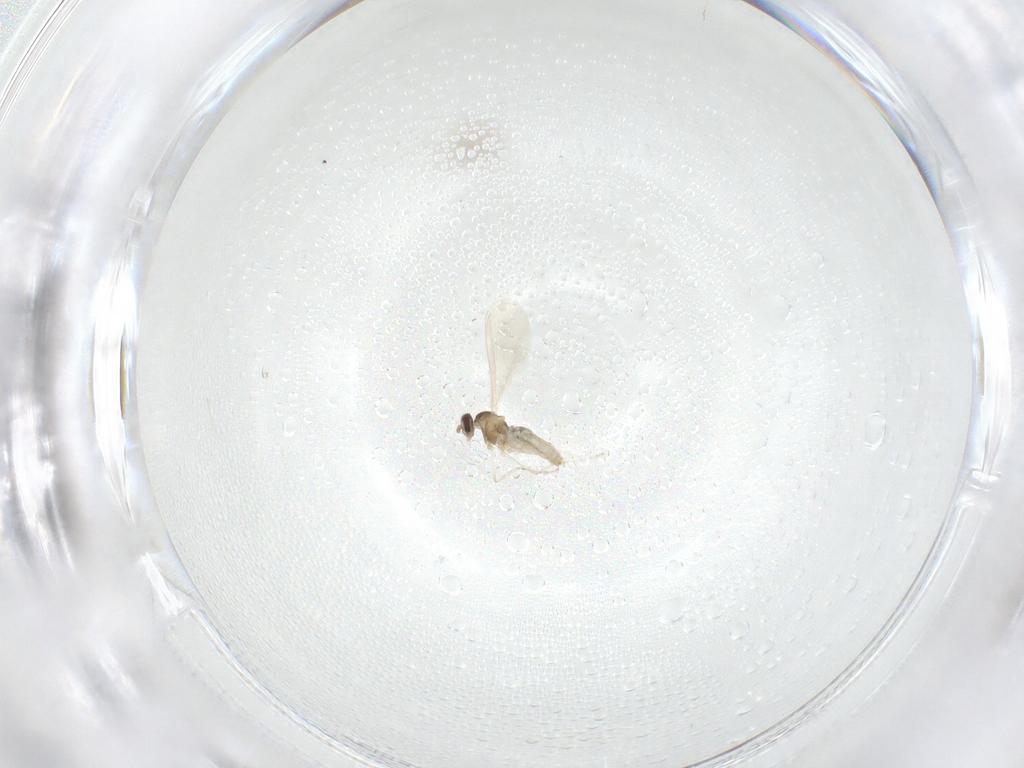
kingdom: Animalia
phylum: Arthropoda
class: Insecta
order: Diptera
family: Cecidomyiidae
